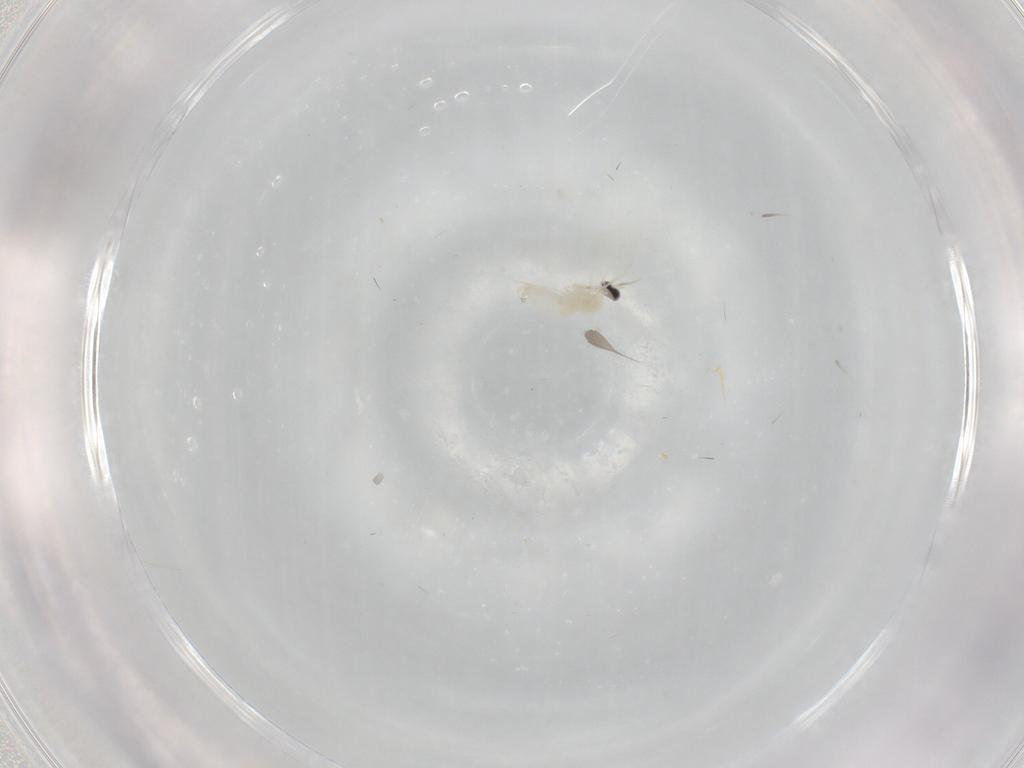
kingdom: Animalia
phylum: Arthropoda
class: Insecta
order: Diptera
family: Cecidomyiidae
